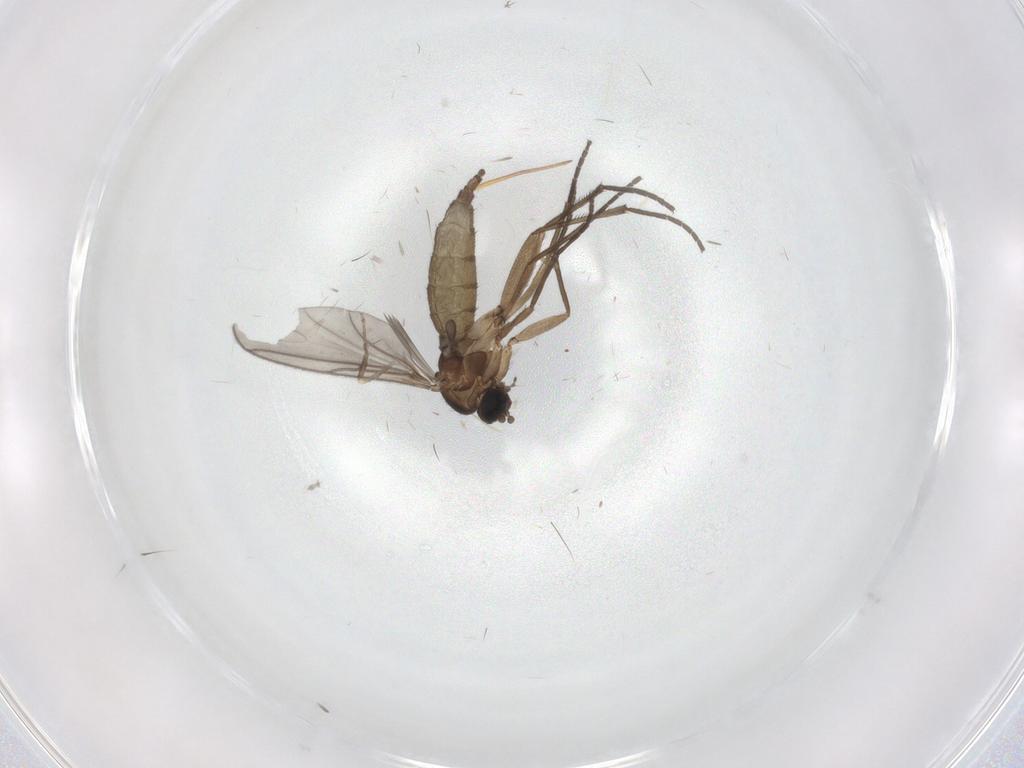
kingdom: Animalia
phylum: Arthropoda
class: Insecta
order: Diptera
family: Sciaridae
